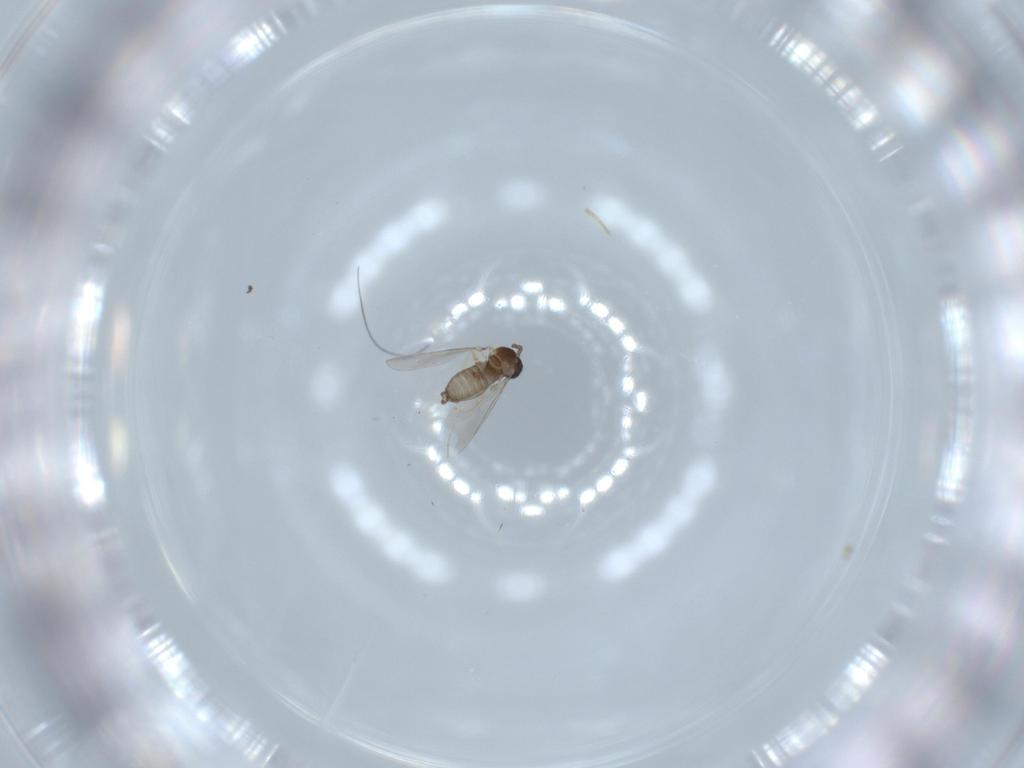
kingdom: Animalia
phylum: Arthropoda
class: Insecta
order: Diptera
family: Cecidomyiidae
